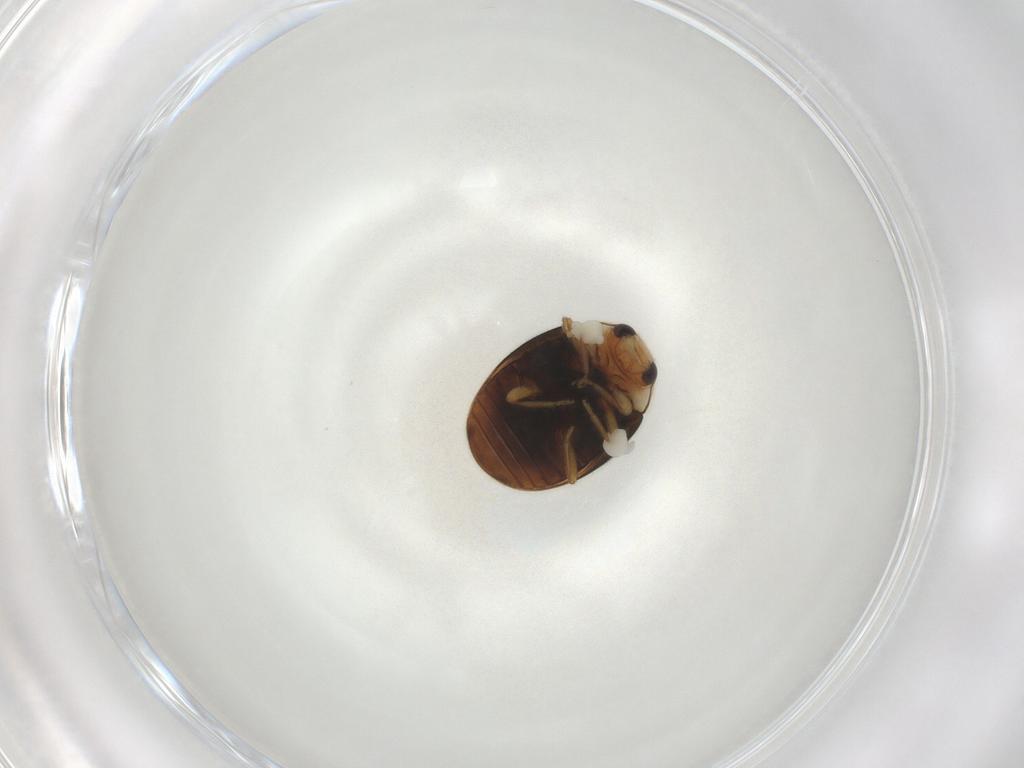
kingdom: Animalia
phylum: Arthropoda
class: Insecta
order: Coleoptera
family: Coccinellidae
